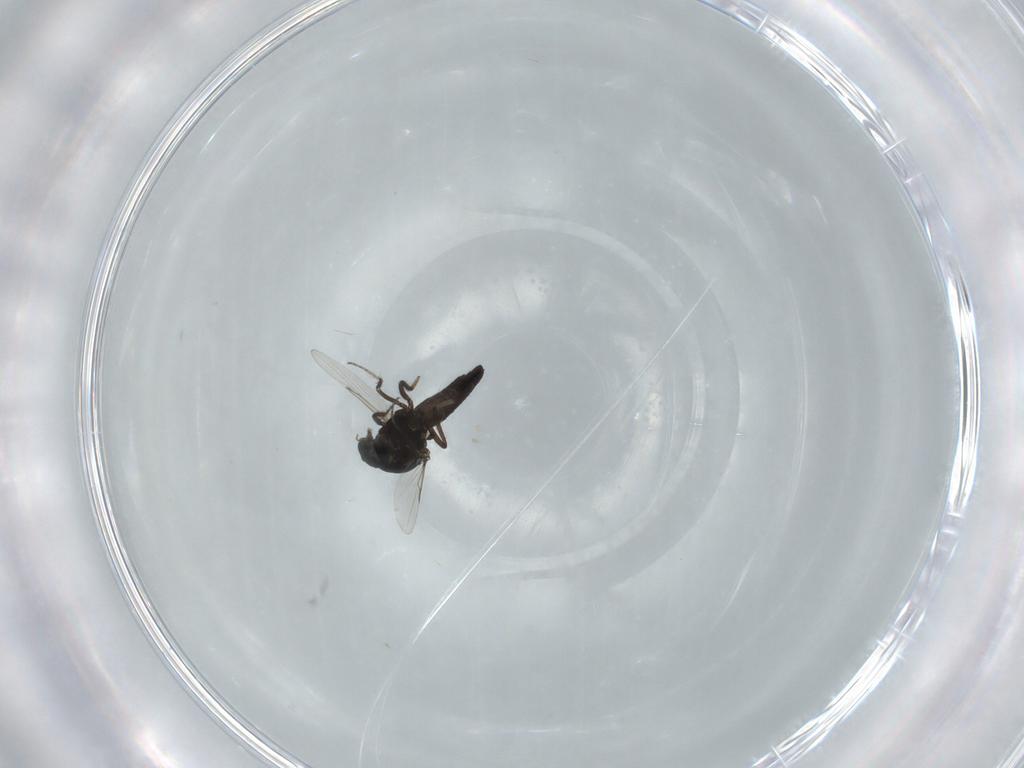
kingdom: Animalia
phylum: Arthropoda
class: Insecta
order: Diptera
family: Ceratopogonidae
